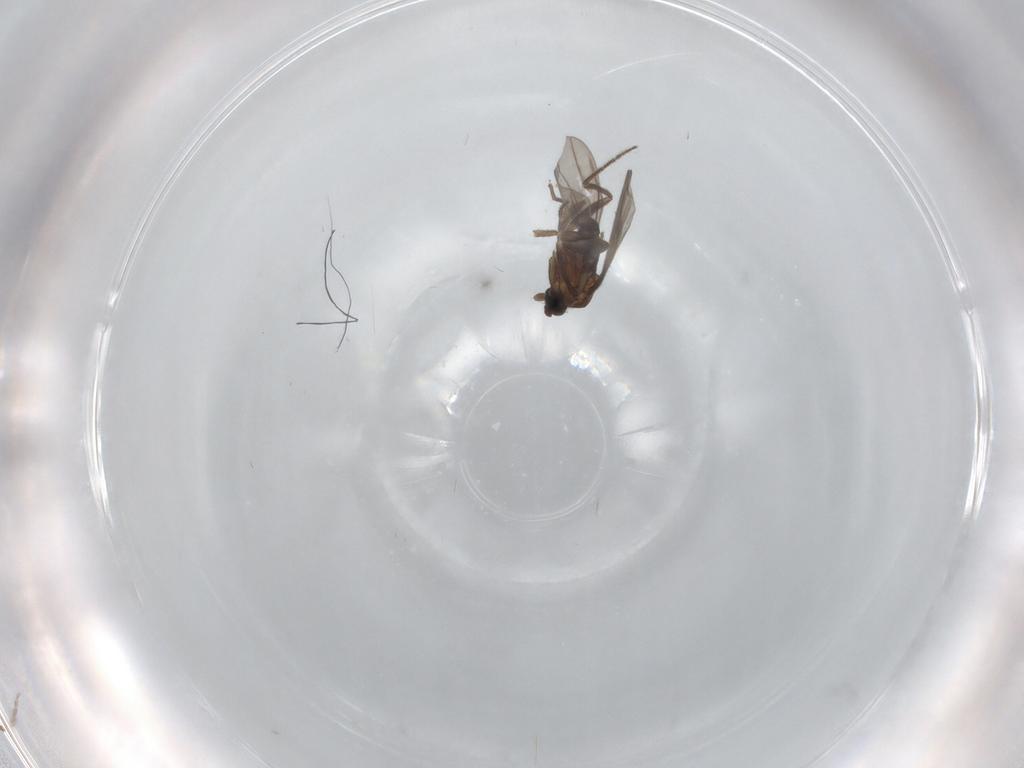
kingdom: Animalia
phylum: Arthropoda
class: Insecta
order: Diptera
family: Phoridae
